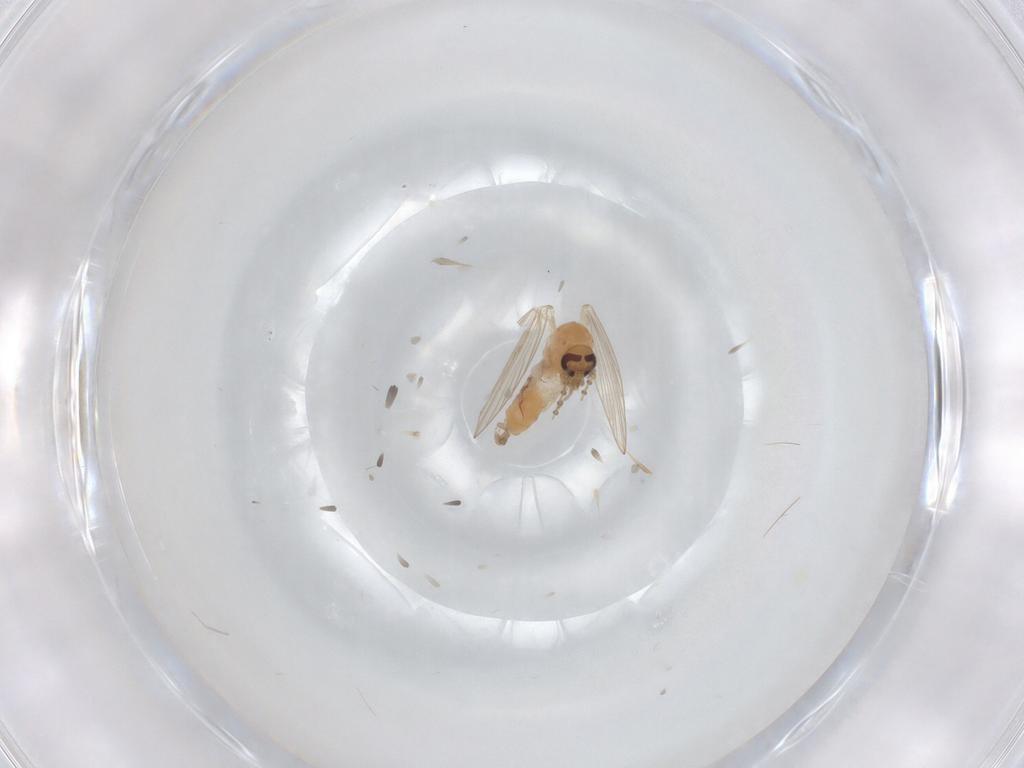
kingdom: Animalia
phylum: Arthropoda
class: Insecta
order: Diptera
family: Psychodidae
